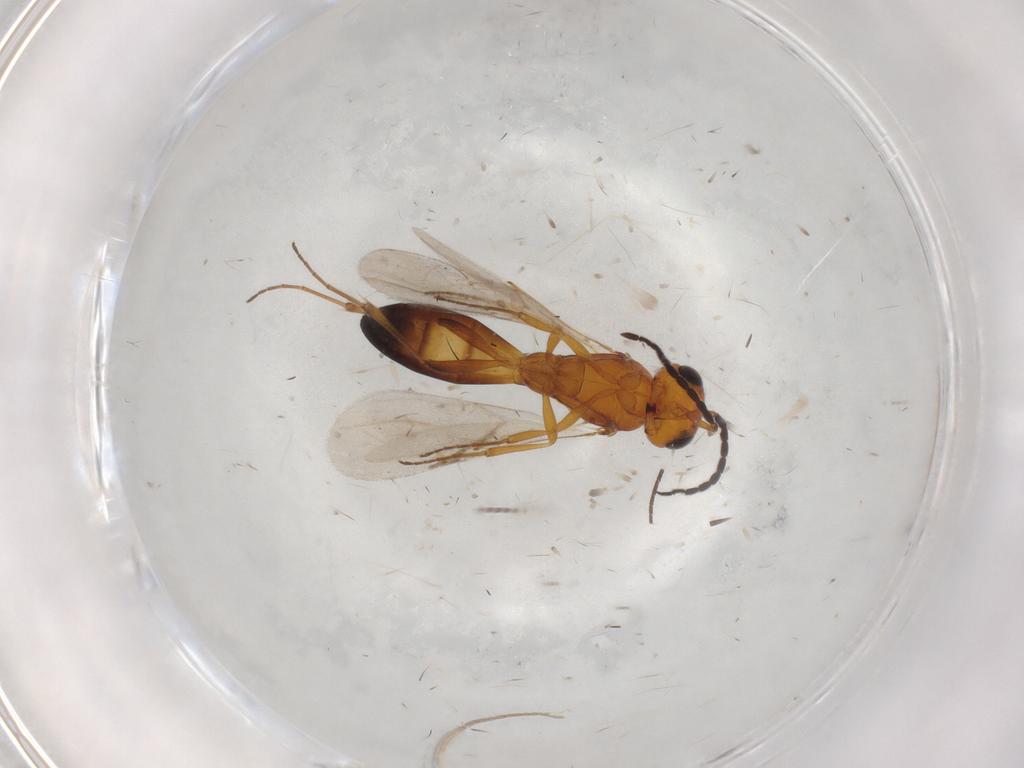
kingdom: Animalia
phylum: Arthropoda
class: Insecta
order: Hymenoptera
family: Scelionidae
